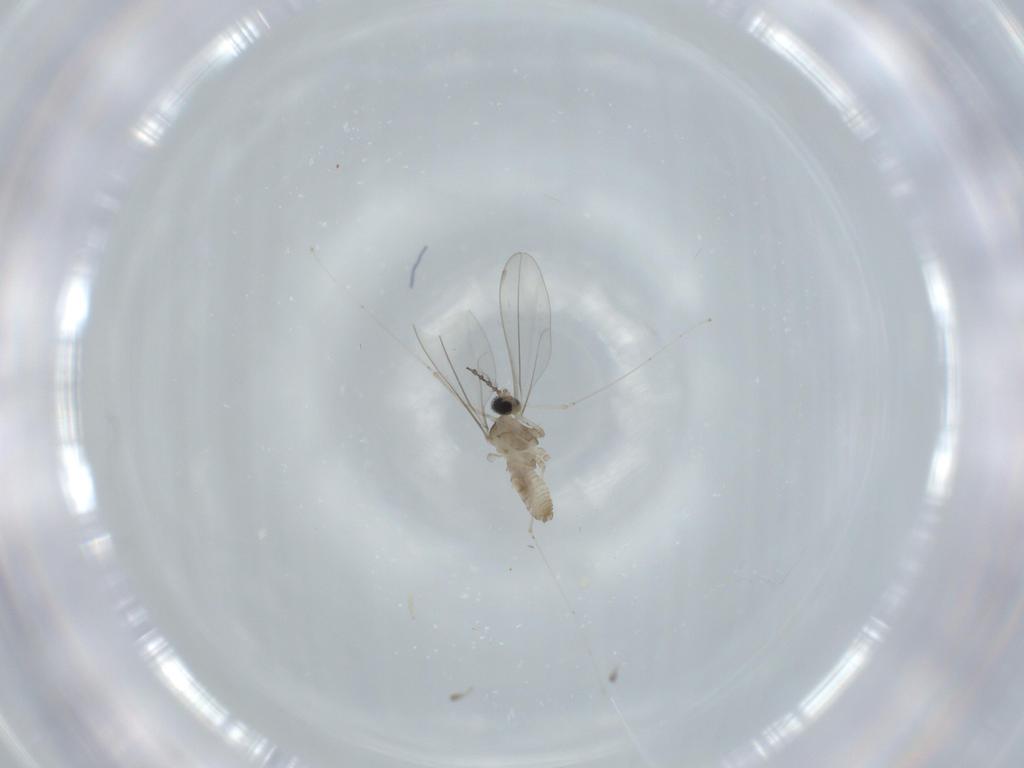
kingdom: Animalia
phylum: Arthropoda
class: Insecta
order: Diptera
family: Cecidomyiidae
